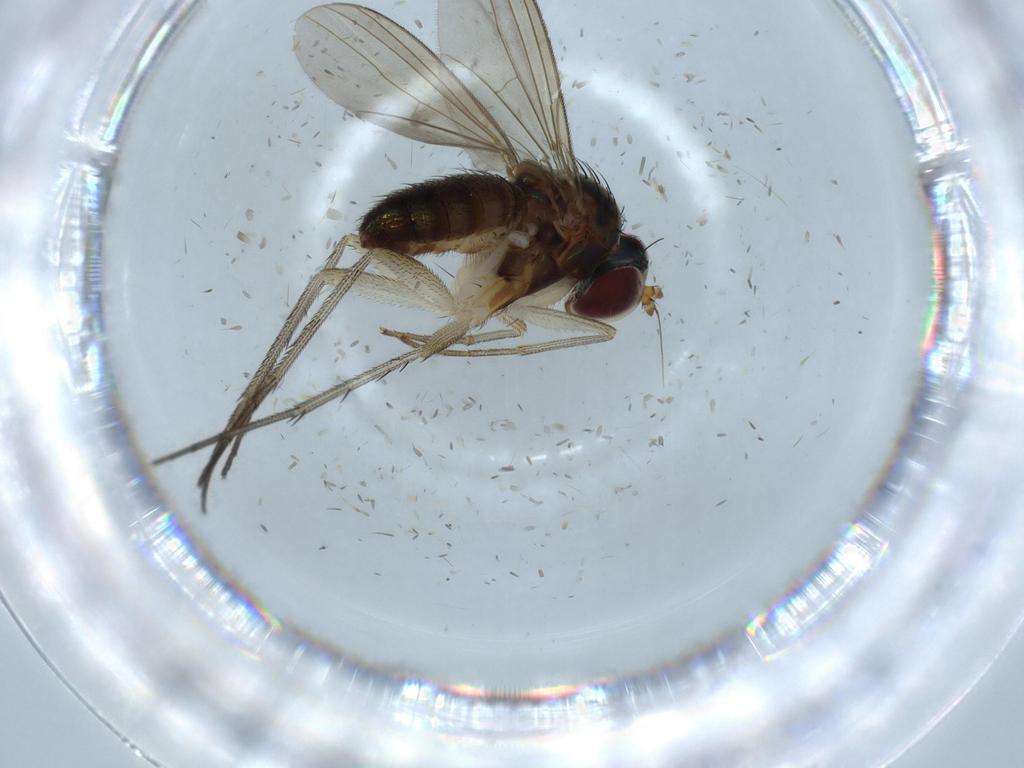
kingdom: Animalia
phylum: Arthropoda
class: Insecta
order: Diptera
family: Dolichopodidae
